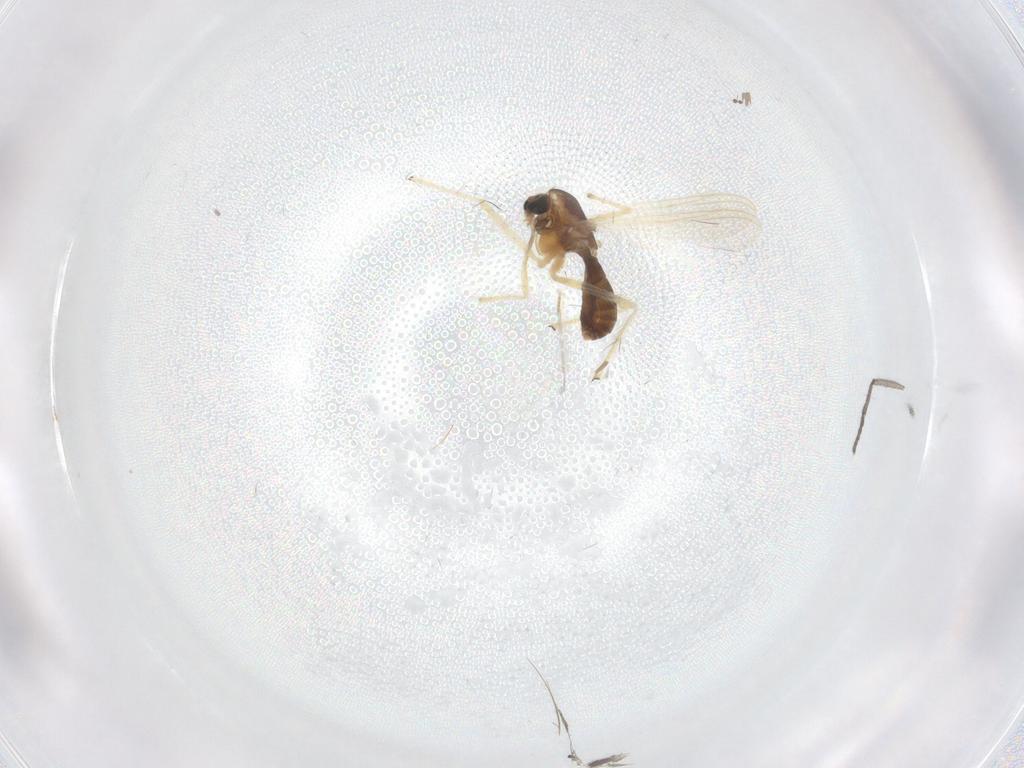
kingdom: Animalia
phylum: Arthropoda
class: Insecta
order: Diptera
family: Chironomidae
